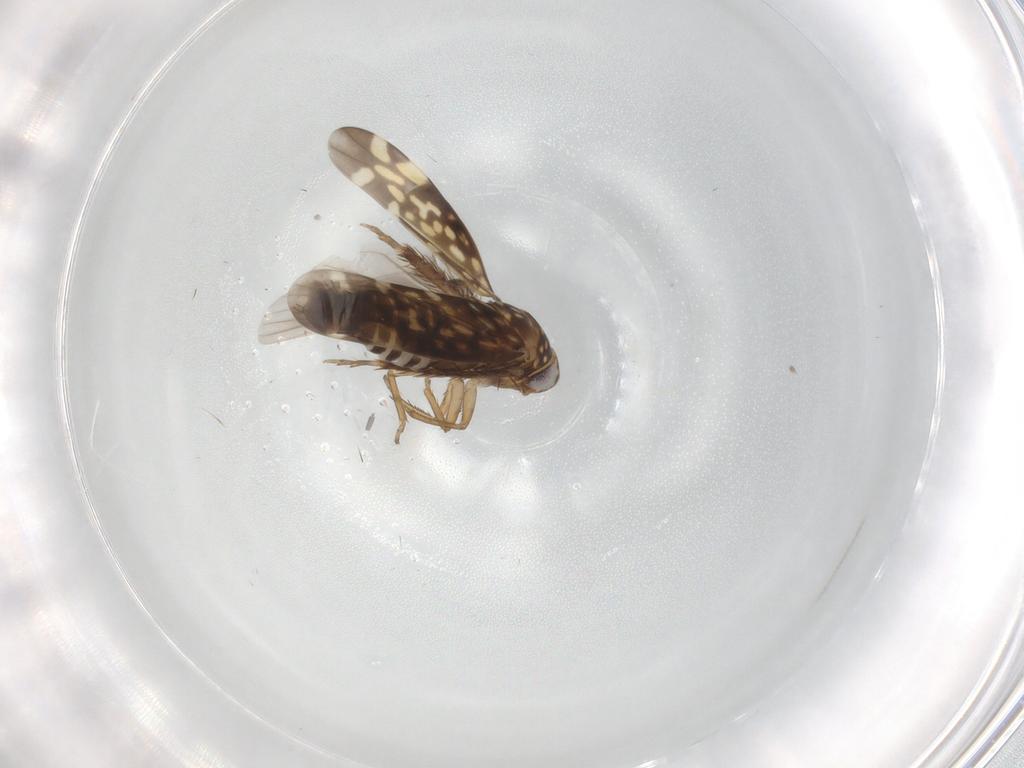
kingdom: Animalia
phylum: Arthropoda
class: Insecta
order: Hemiptera
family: Cicadellidae
